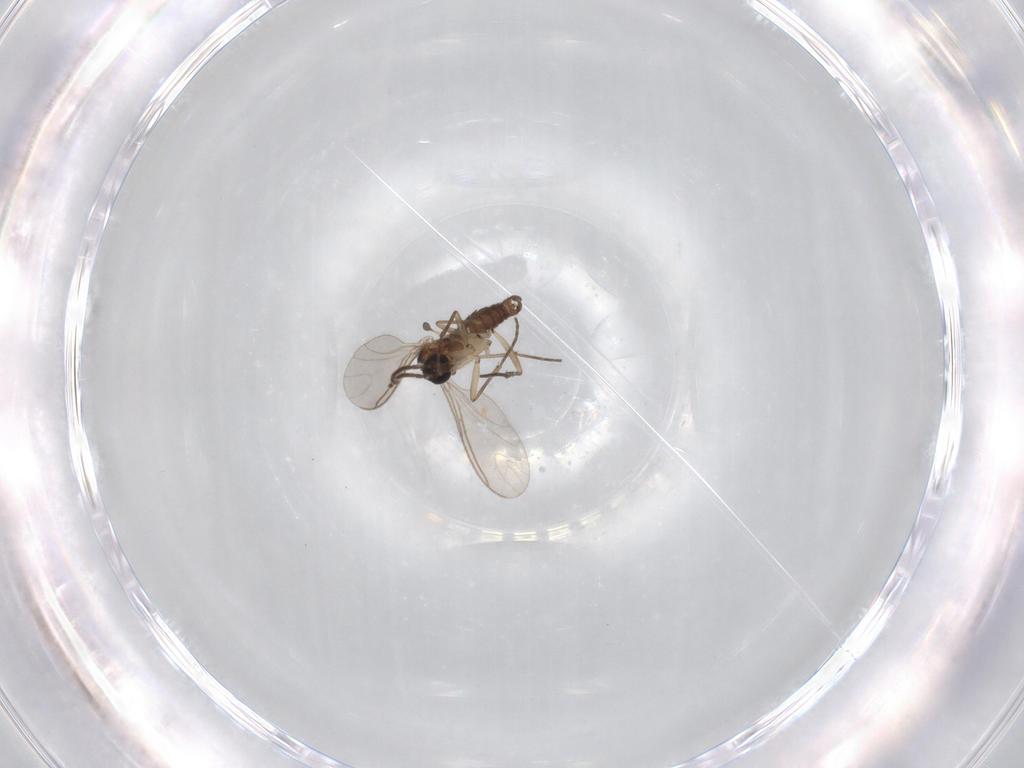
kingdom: Animalia
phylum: Arthropoda
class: Insecta
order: Diptera
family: Sciaridae
